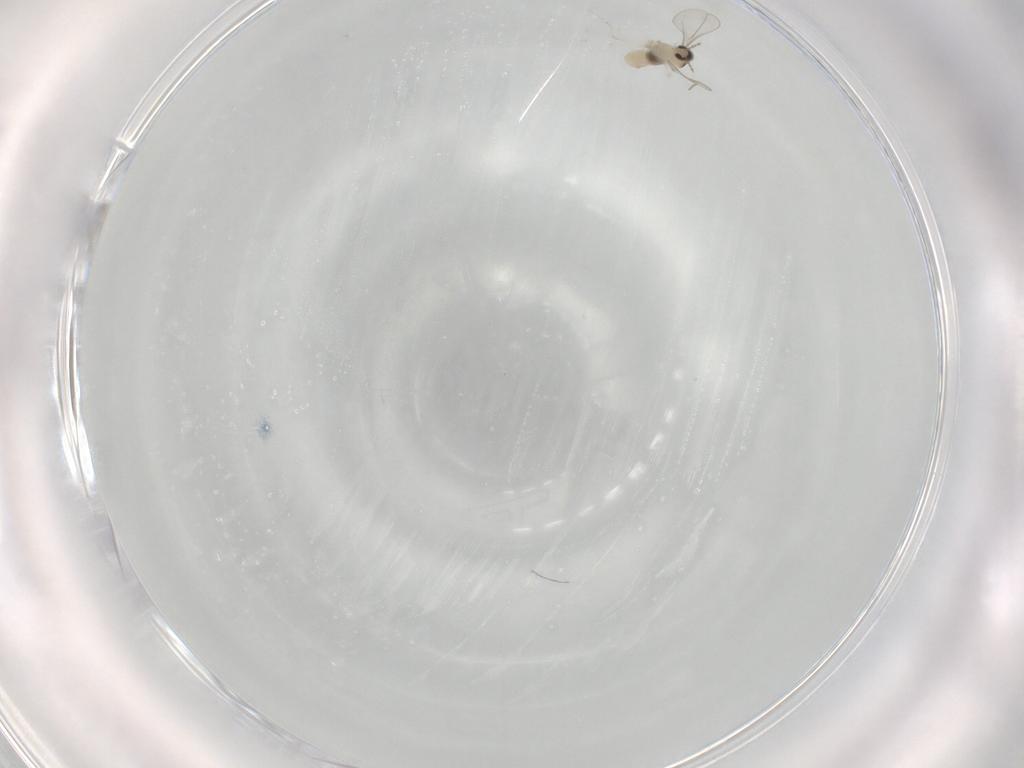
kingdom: Animalia
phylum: Arthropoda
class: Insecta
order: Diptera
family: Cecidomyiidae
